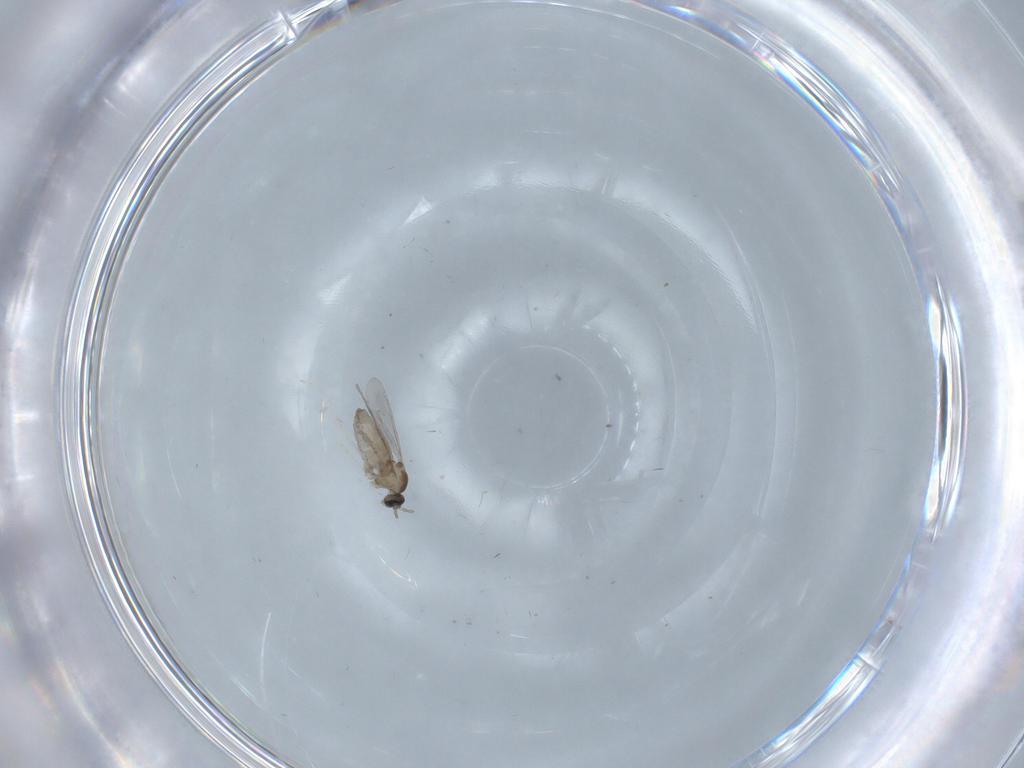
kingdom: Animalia
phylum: Arthropoda
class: Insecta
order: Diptera
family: Cecidomyiidae
